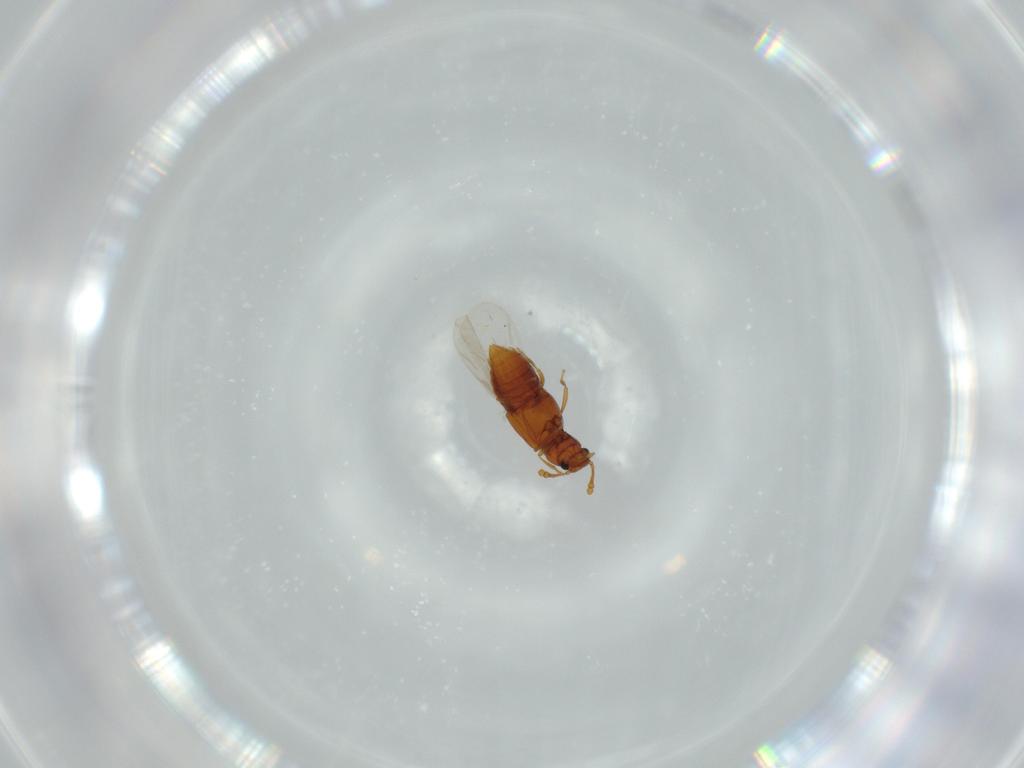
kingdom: Animalia
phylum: Arthropoda
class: Insecta
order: Coleoptera
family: Staphylinidae
